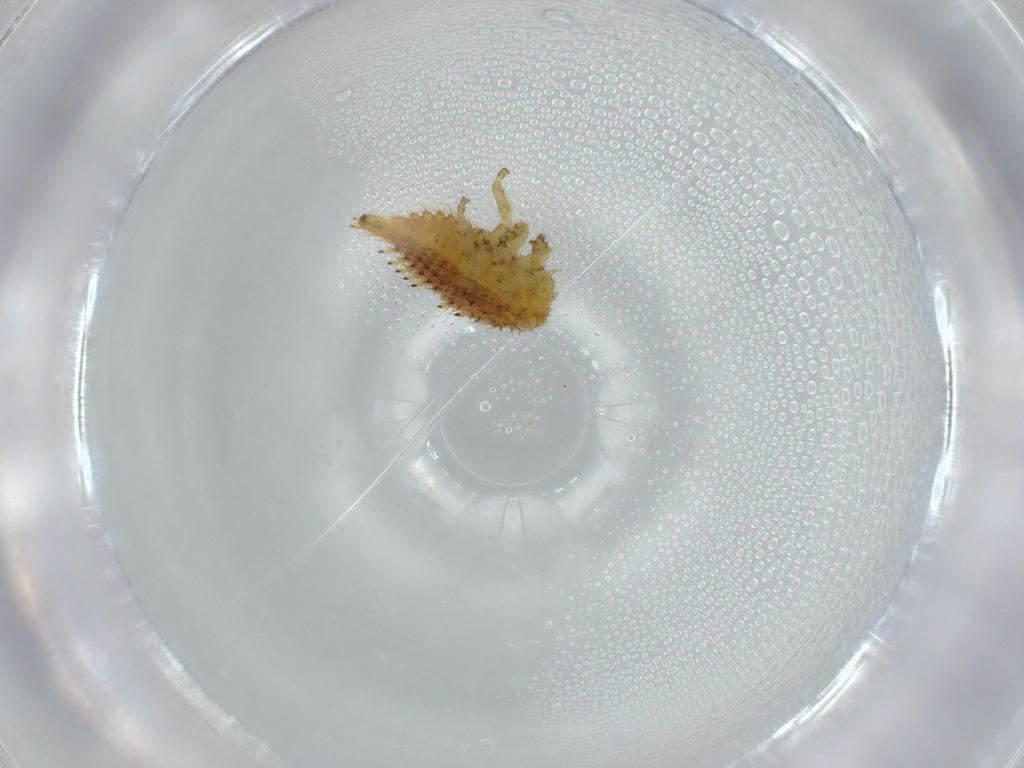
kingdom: Animalia
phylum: Arthropoda
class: Insecta
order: Hemiptera
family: Membracidae
